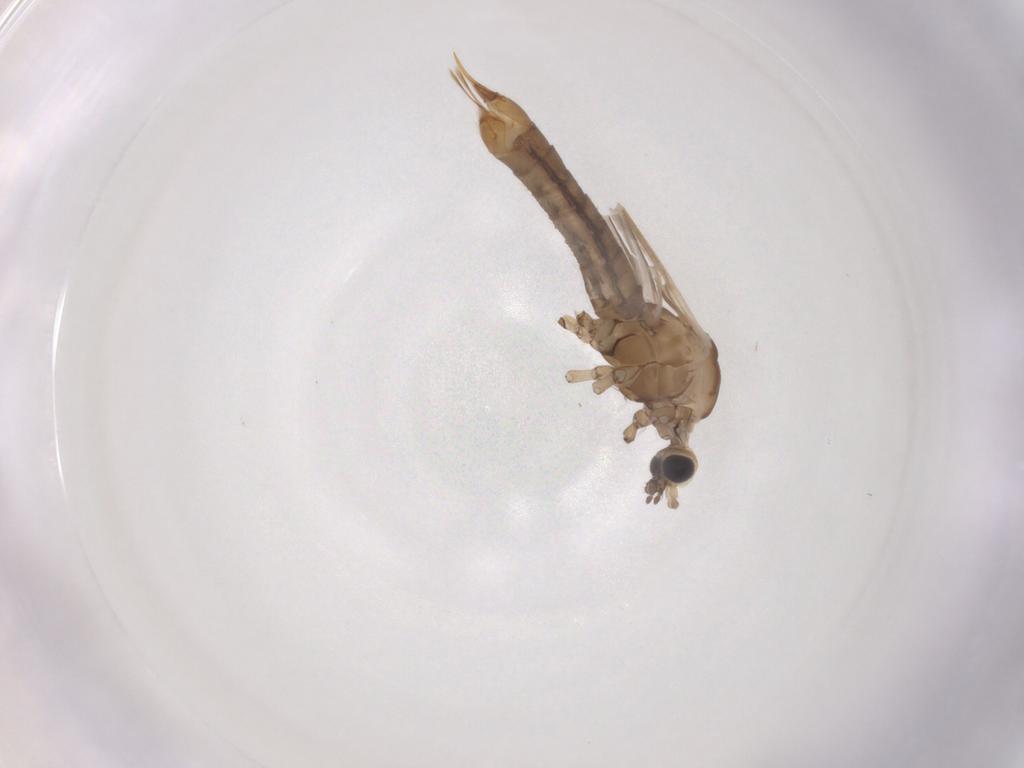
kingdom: Animalia
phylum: Arthropoda
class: Insecta
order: Diptera
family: Limoniidae
